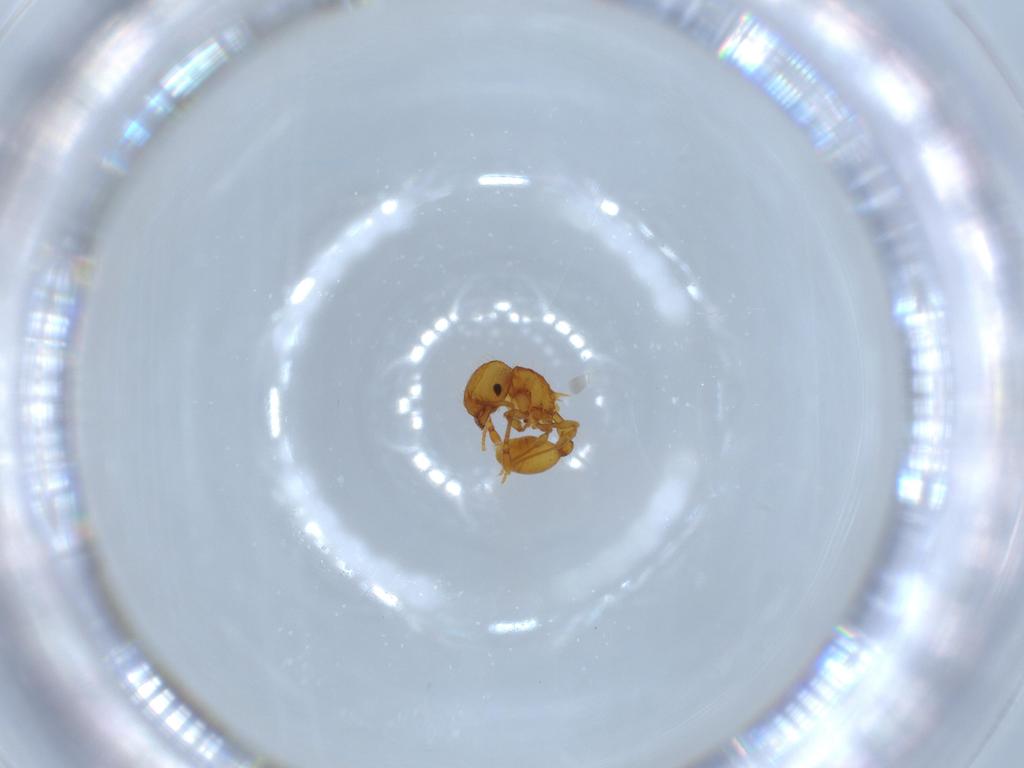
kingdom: Animalia
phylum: Arthropoda
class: Insecta
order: Hymenoptera
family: Formicidae
